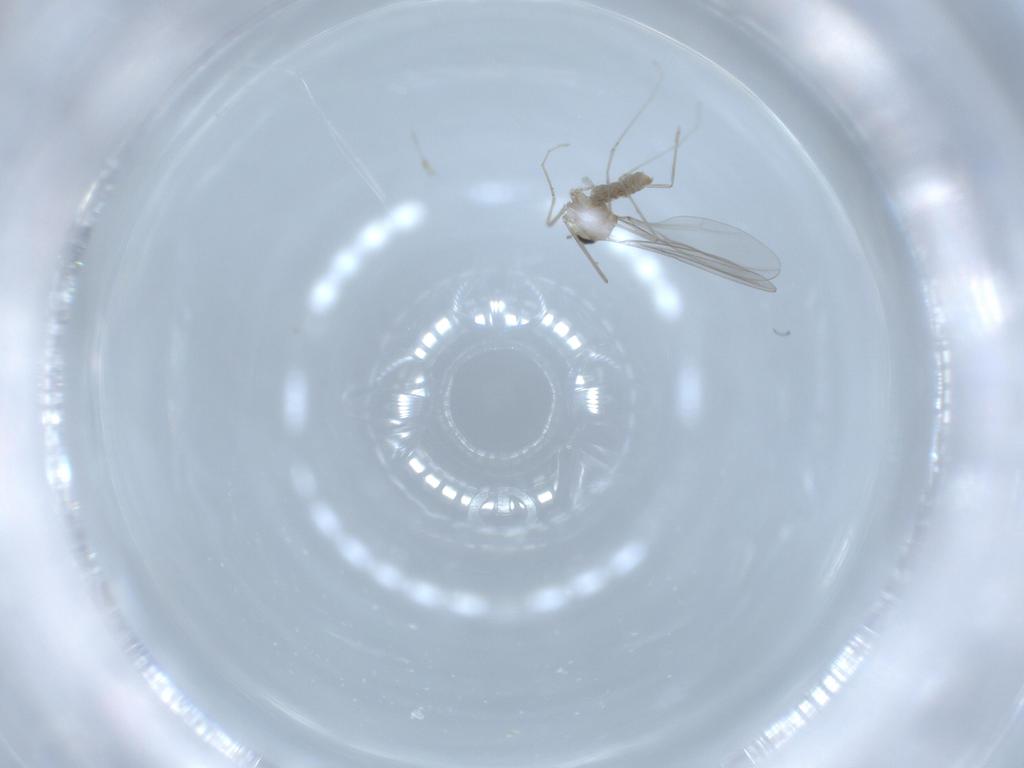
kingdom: Animalia
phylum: Arthropoda
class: Insecta
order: Diptera
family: Cecidomyiidae
